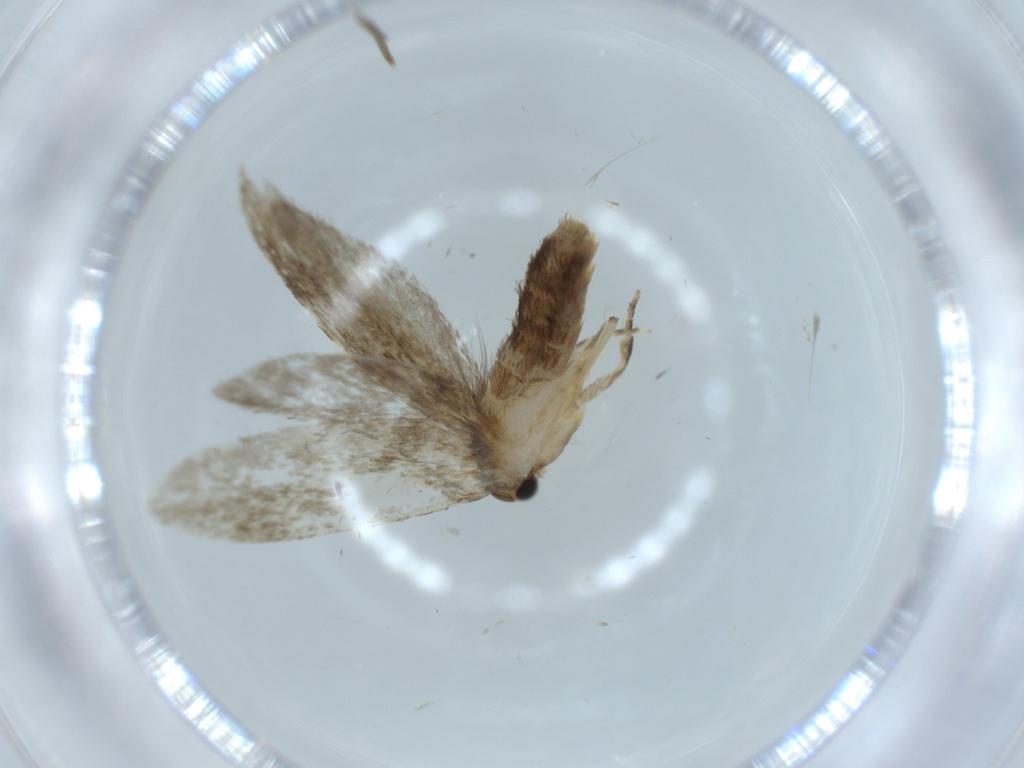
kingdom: Animalia
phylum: Arthropoda
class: Insecta
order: Lepidoptera
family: Tineidae
